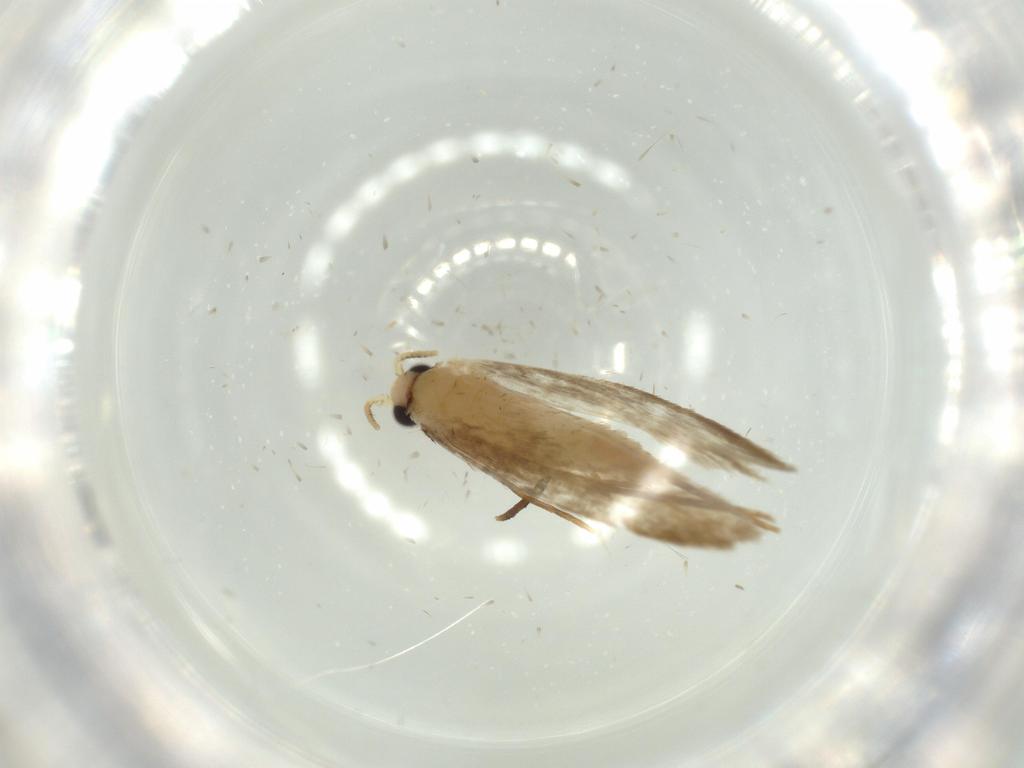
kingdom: Animalia
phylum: Arthropoda
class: Insecta
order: Lepidoptera
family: Tineidae
